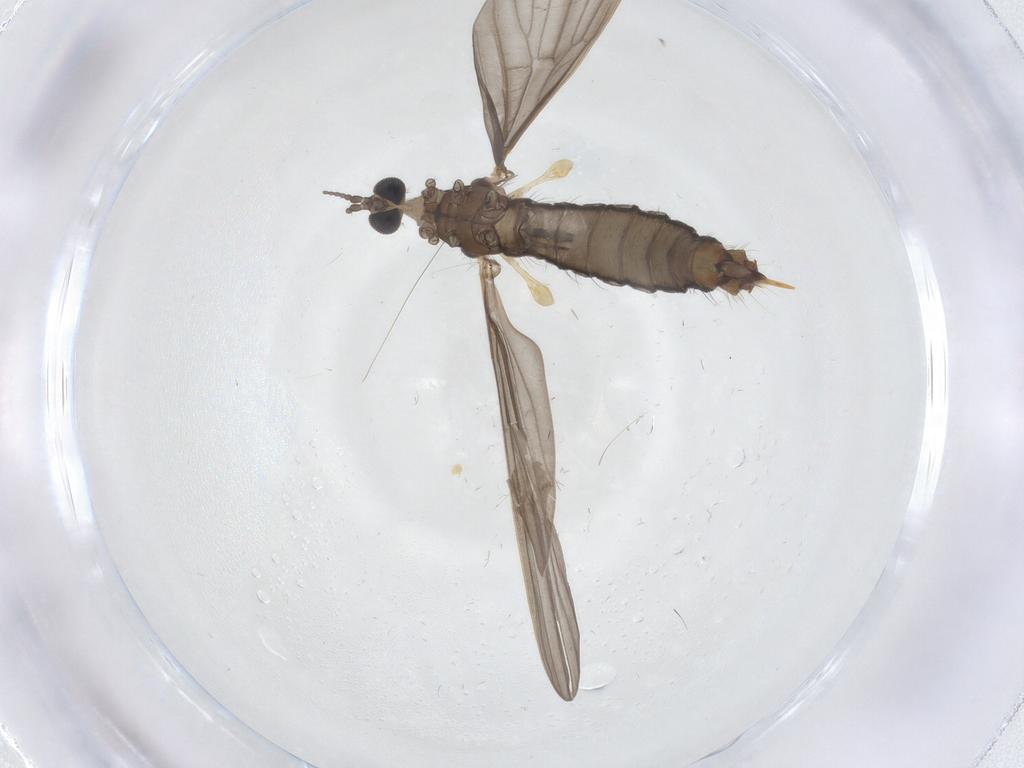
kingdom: Animalia
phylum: Arthropoda
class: Insecta
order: Diptera
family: Limoniidae
